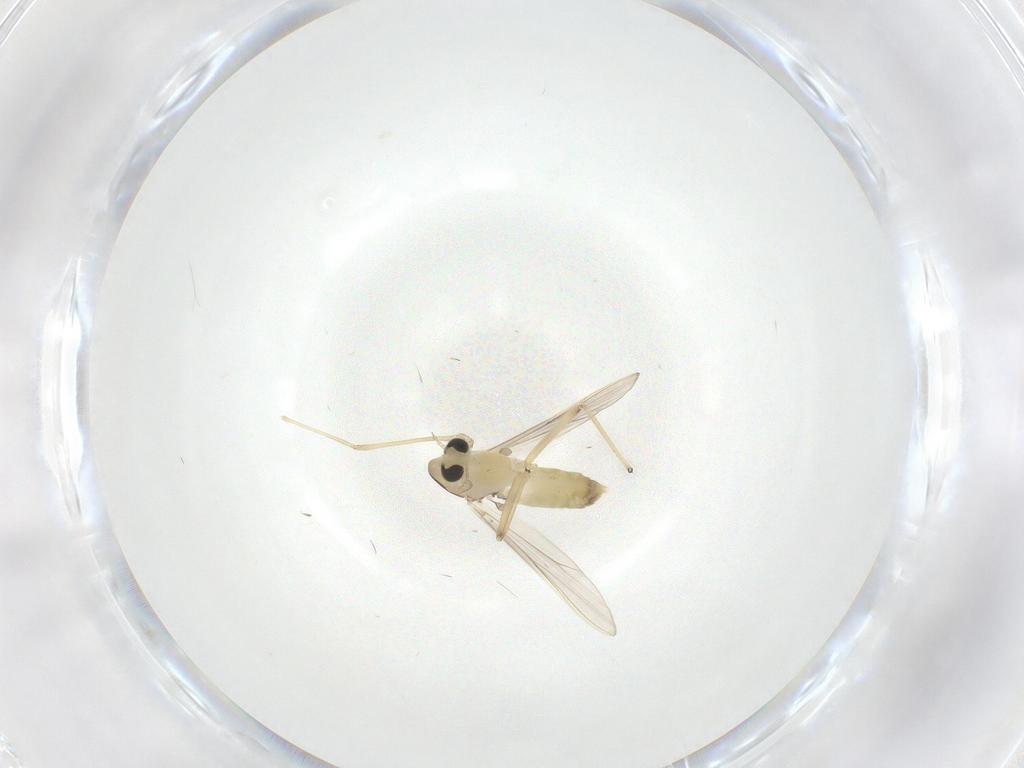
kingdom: Animalia
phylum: Arthropoda
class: Insecta
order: Diptera
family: Chironomidae
